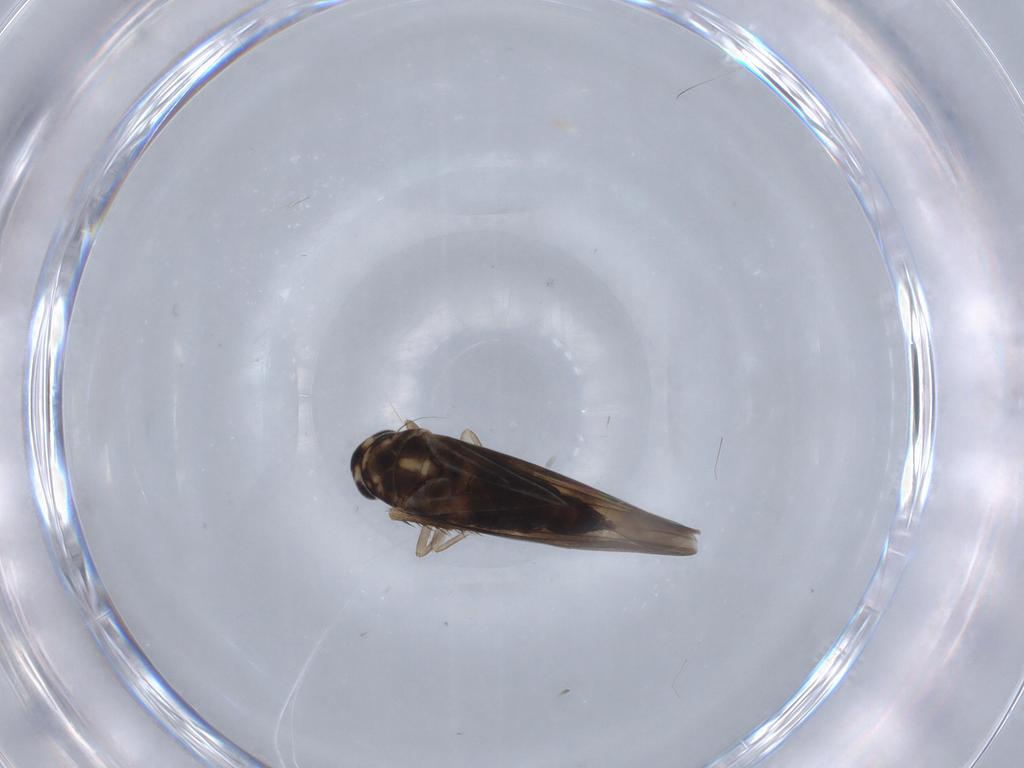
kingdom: Animalia
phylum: Arthropoda
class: Insecta
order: Hemiptera
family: Cicadellidae
